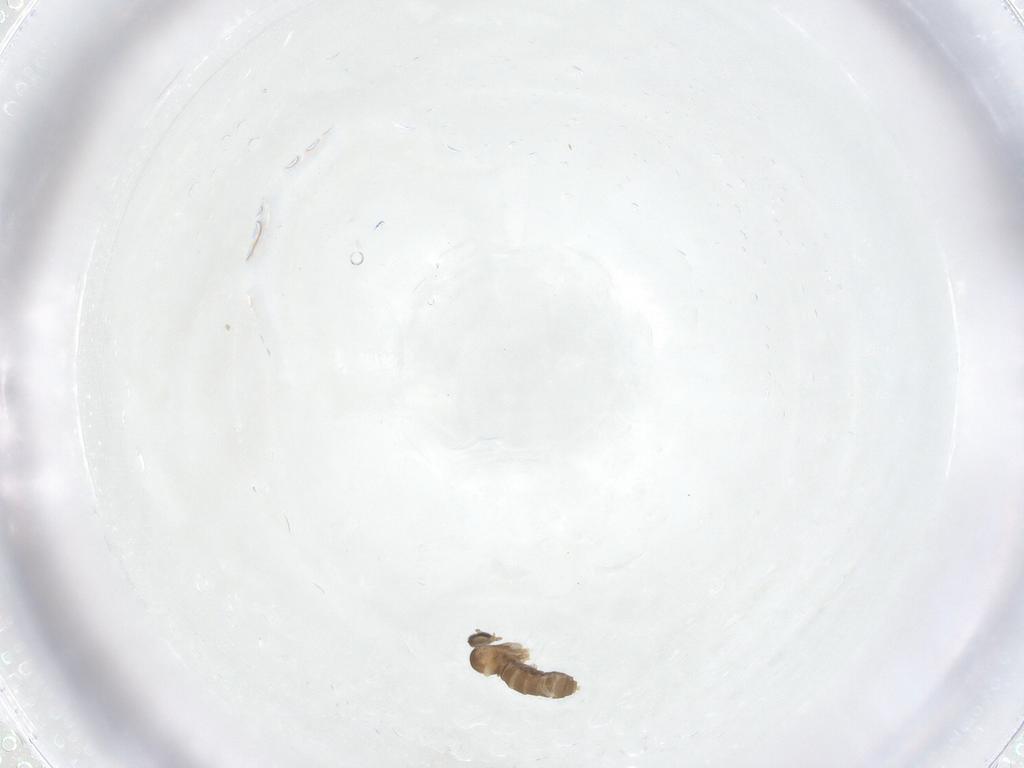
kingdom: Animalia
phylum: Arthropoda
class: Insecta
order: Diptera
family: Cecidomyiidae
